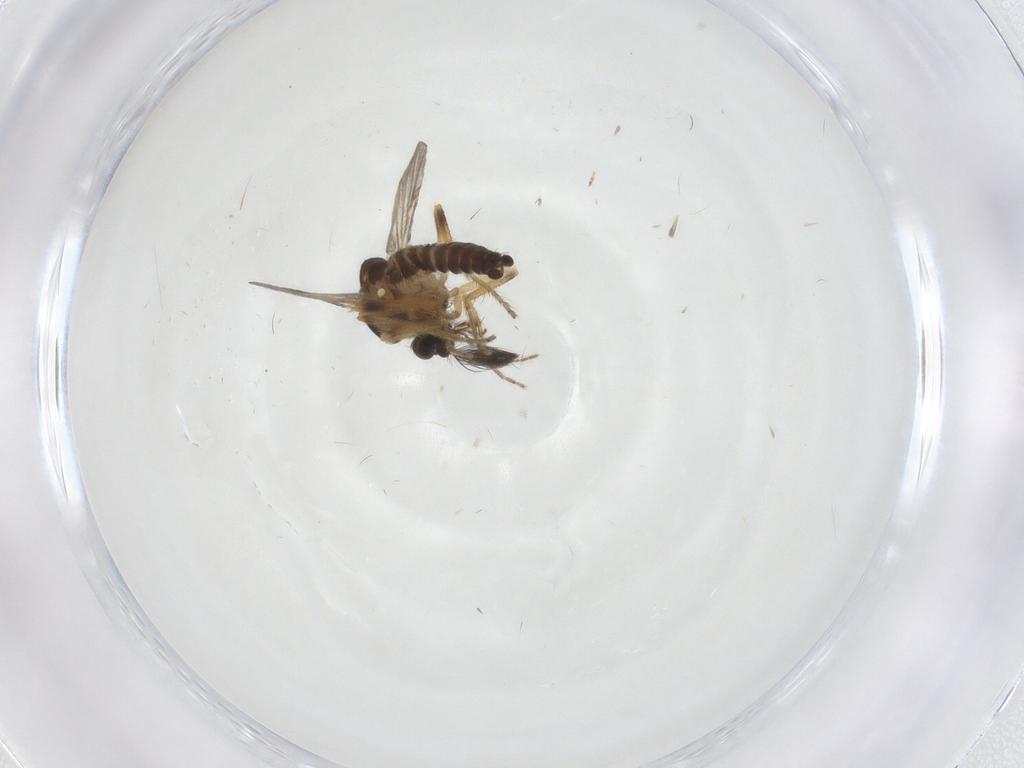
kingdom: Animalia
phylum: Arthropoda
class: Insecta
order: Diptera
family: Ceratopogonidae
